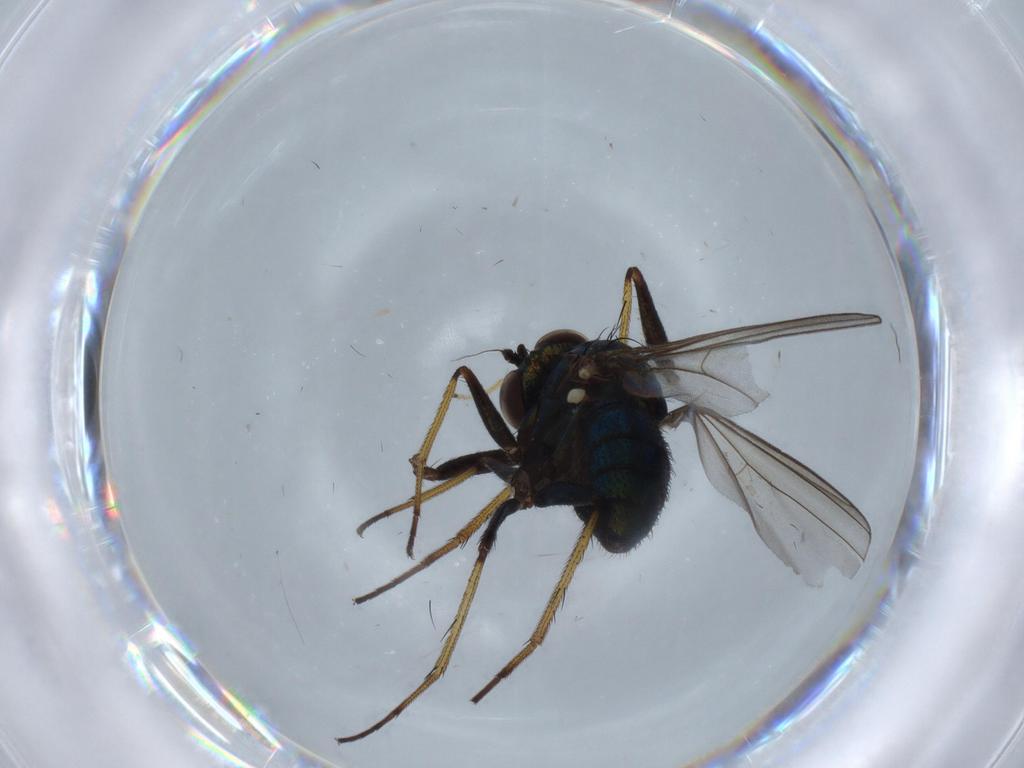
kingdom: Animalia
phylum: Arthropoda
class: Insecta
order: Diptera
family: Dolichopodidae
